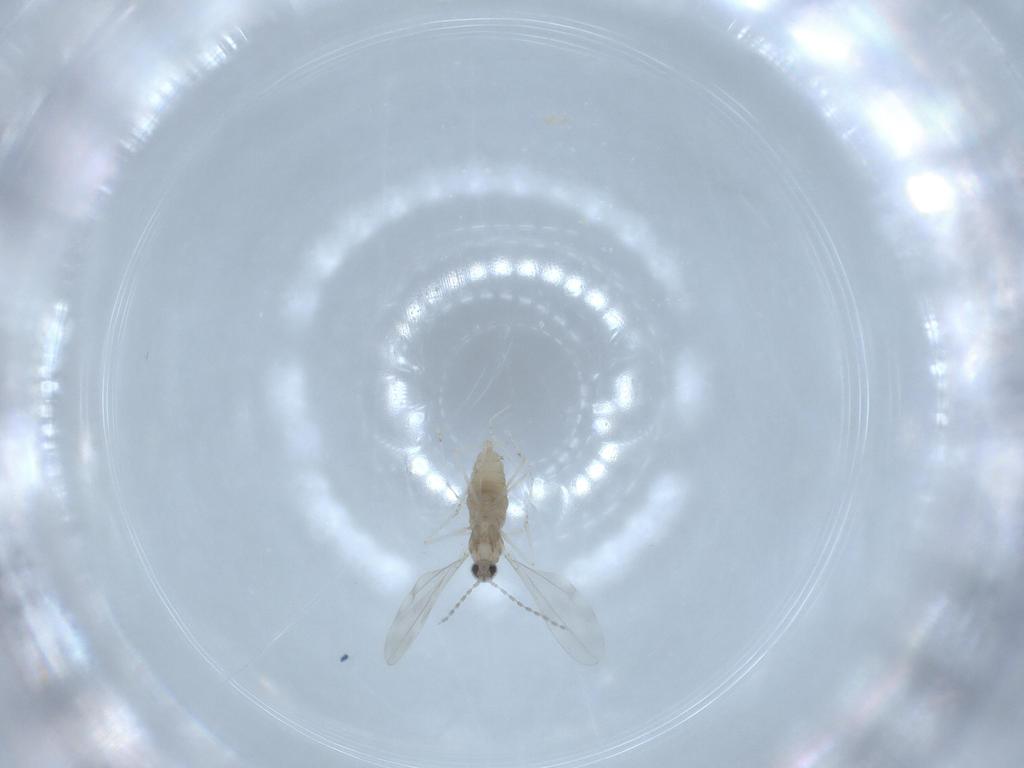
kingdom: Animalia
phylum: Arthropoda
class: Insecta
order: Diptera
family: Cecidomyiidae
